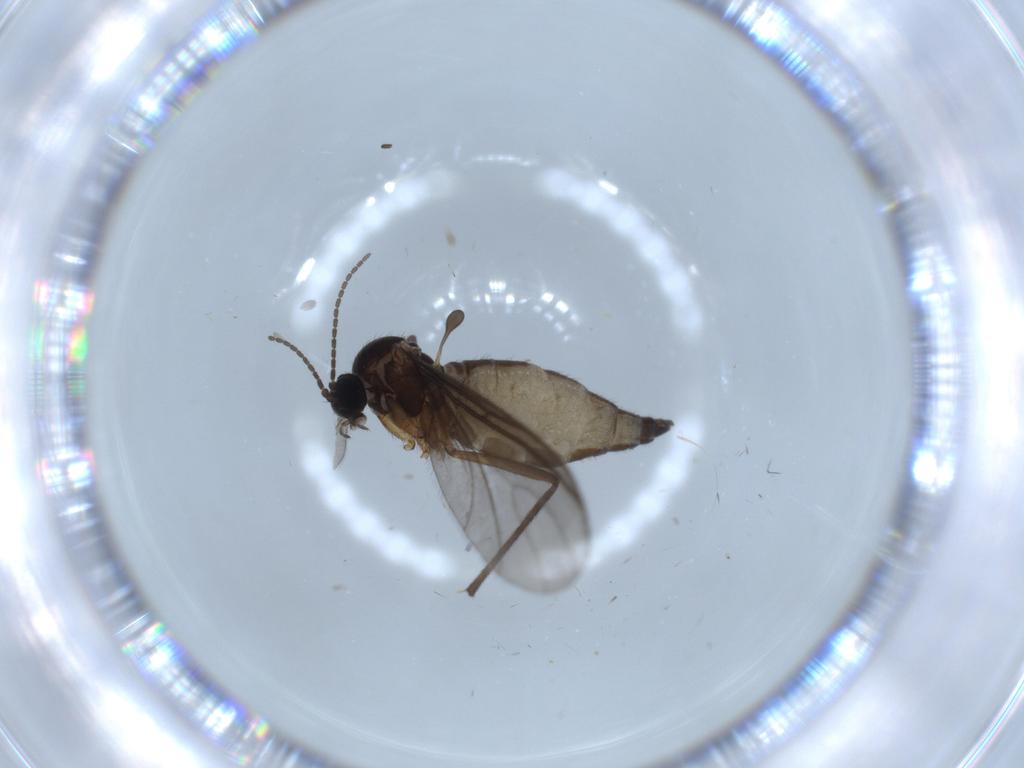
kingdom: Animalia
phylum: Arthropoda
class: Insecta
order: Diptera
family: Sciaridae
